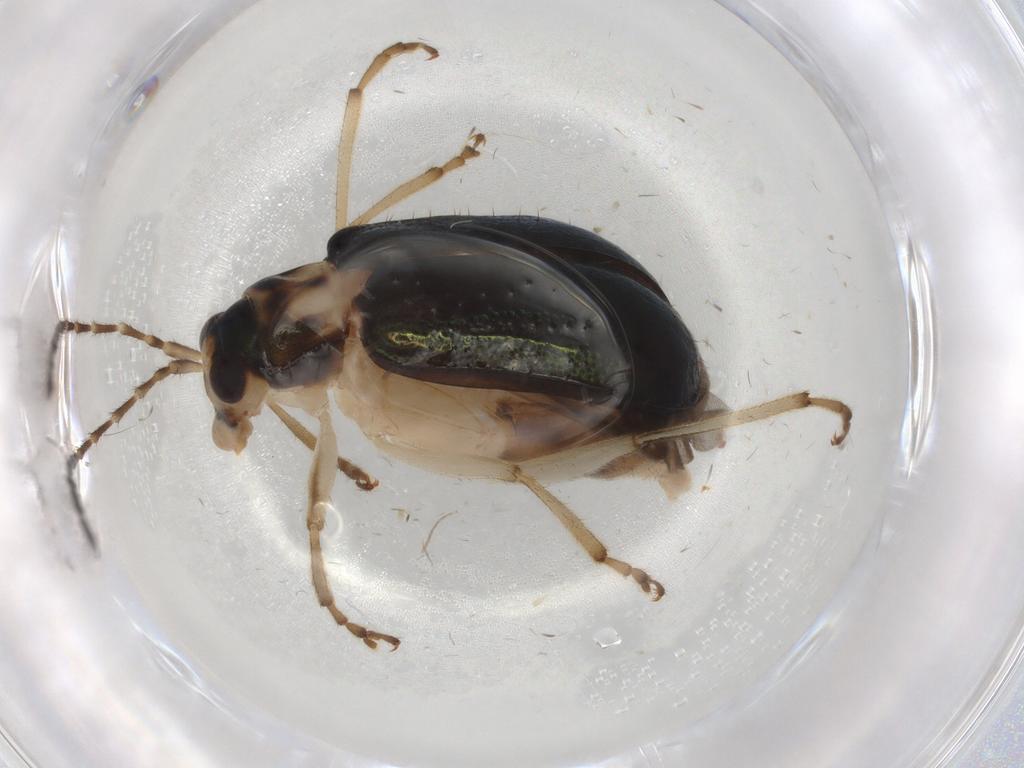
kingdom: Animalia
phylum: Arthropoda
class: Insecta
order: Coleoptera
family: Chrysomelidae
